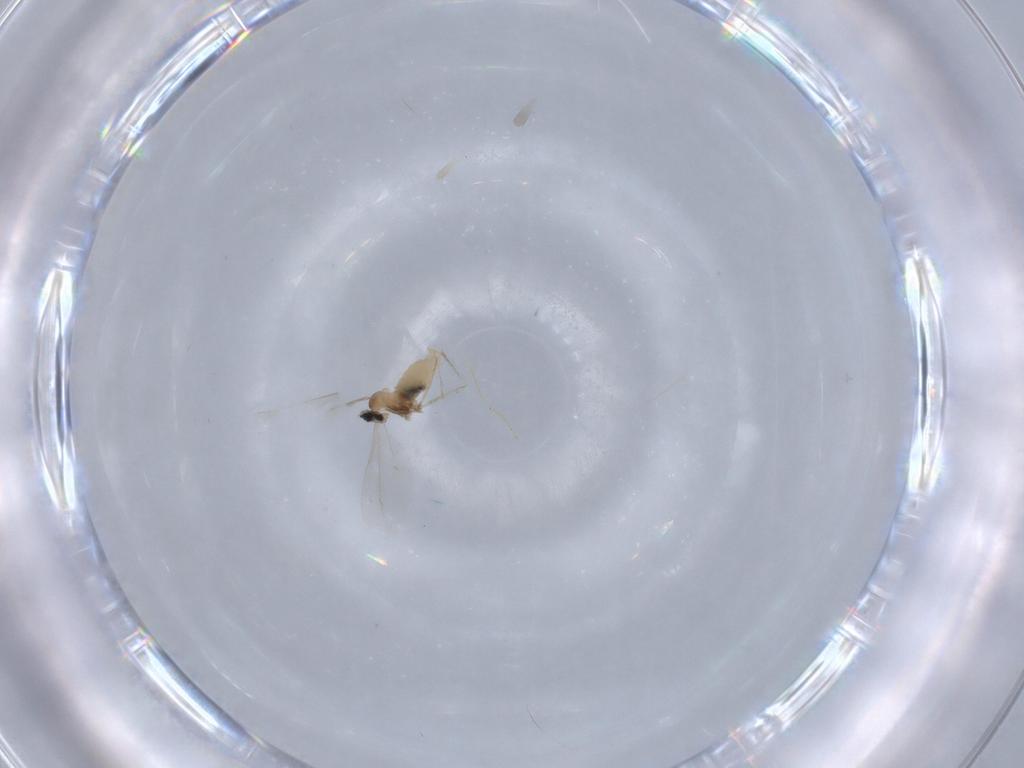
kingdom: Animalia
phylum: Arthropoda
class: Insecta
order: Diptera
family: Cecidomyiidae
